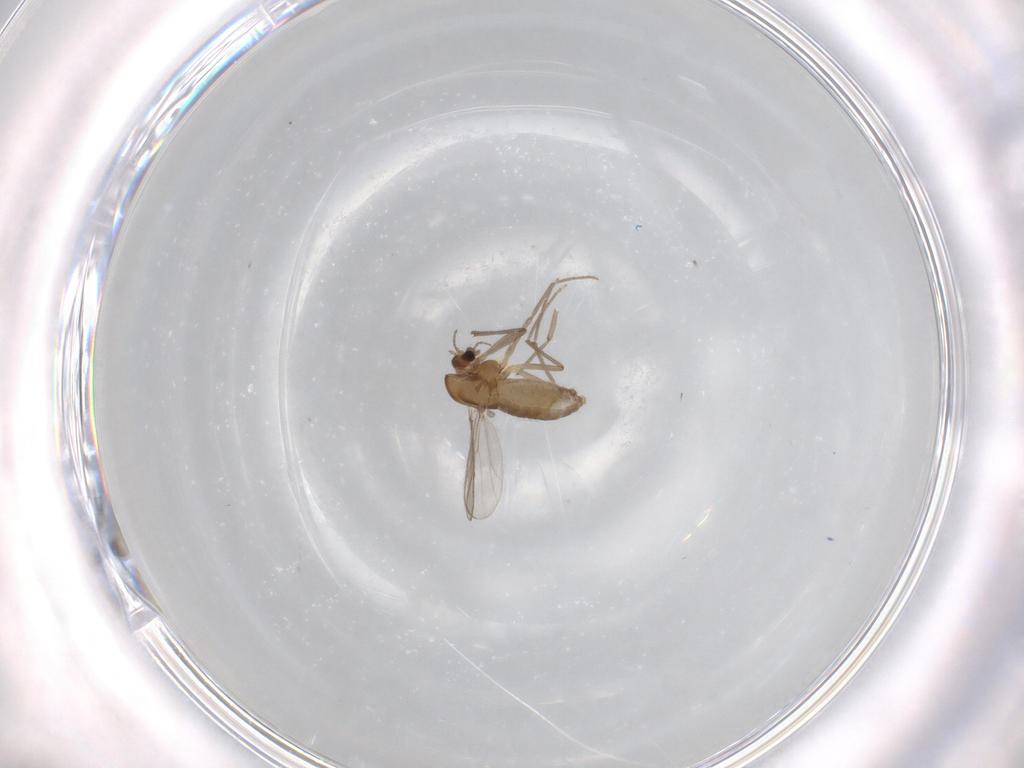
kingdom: Animalia
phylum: Arthropoda
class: Insecta
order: Diptera
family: Chironomidae
